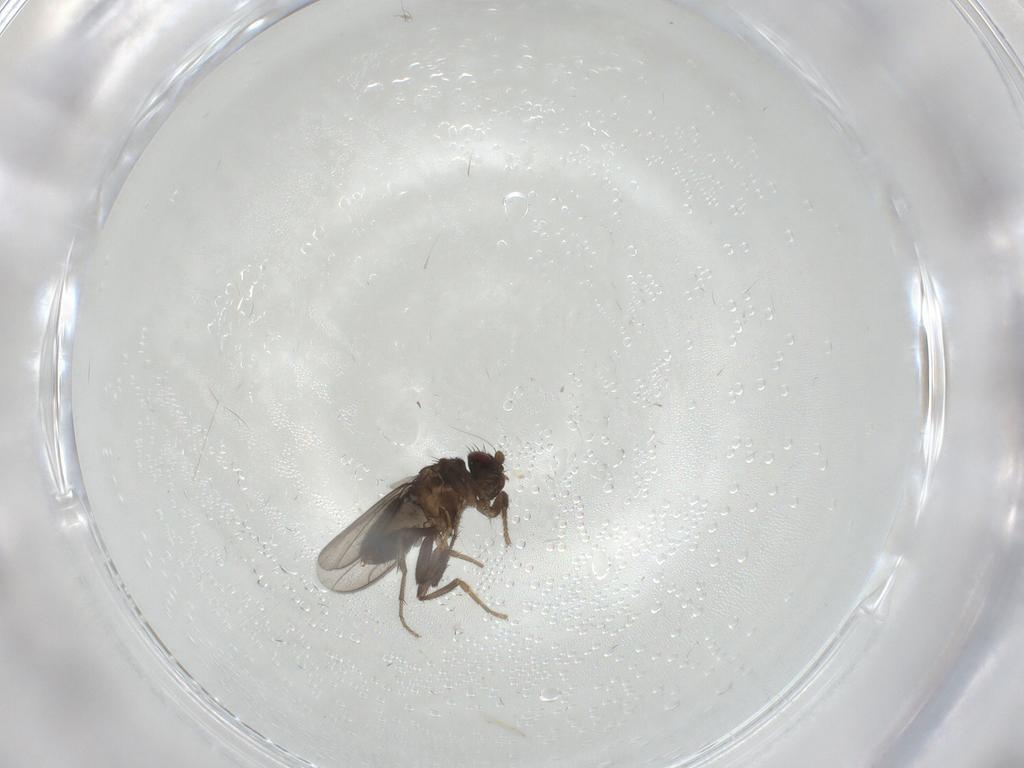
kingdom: Animalia
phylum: Arthropoda
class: Insecta
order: Diptera
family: Sphaeroceridae
